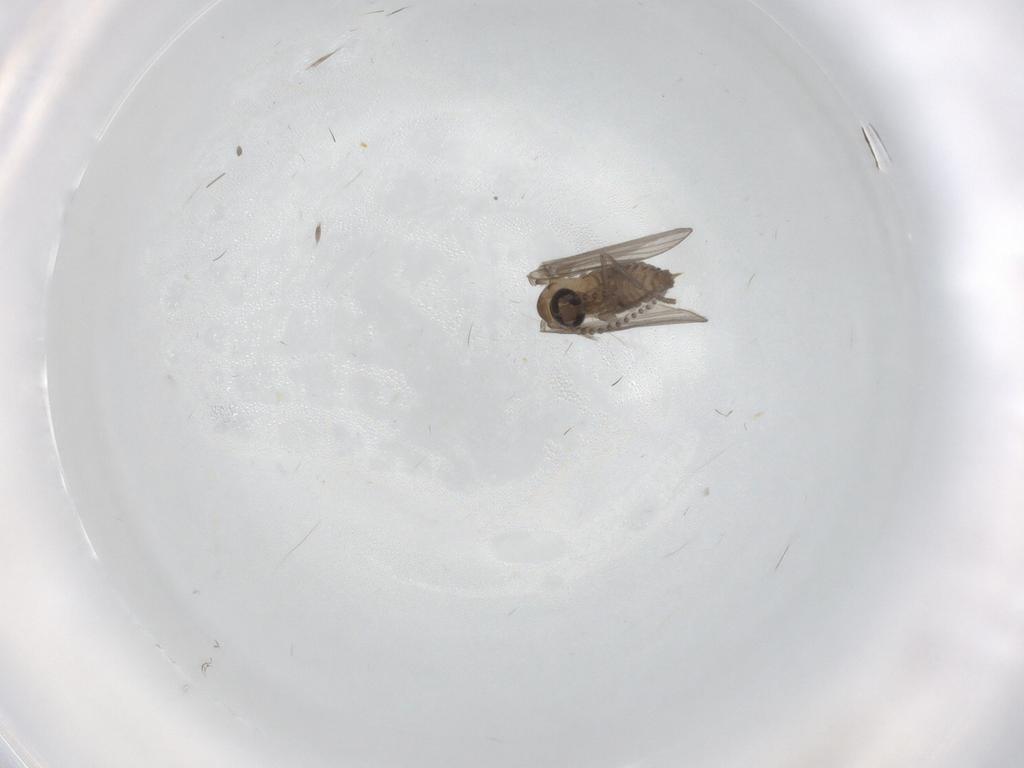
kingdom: Animalia
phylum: Arthropoda
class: Insecta
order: Diptera
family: Psychodidae
